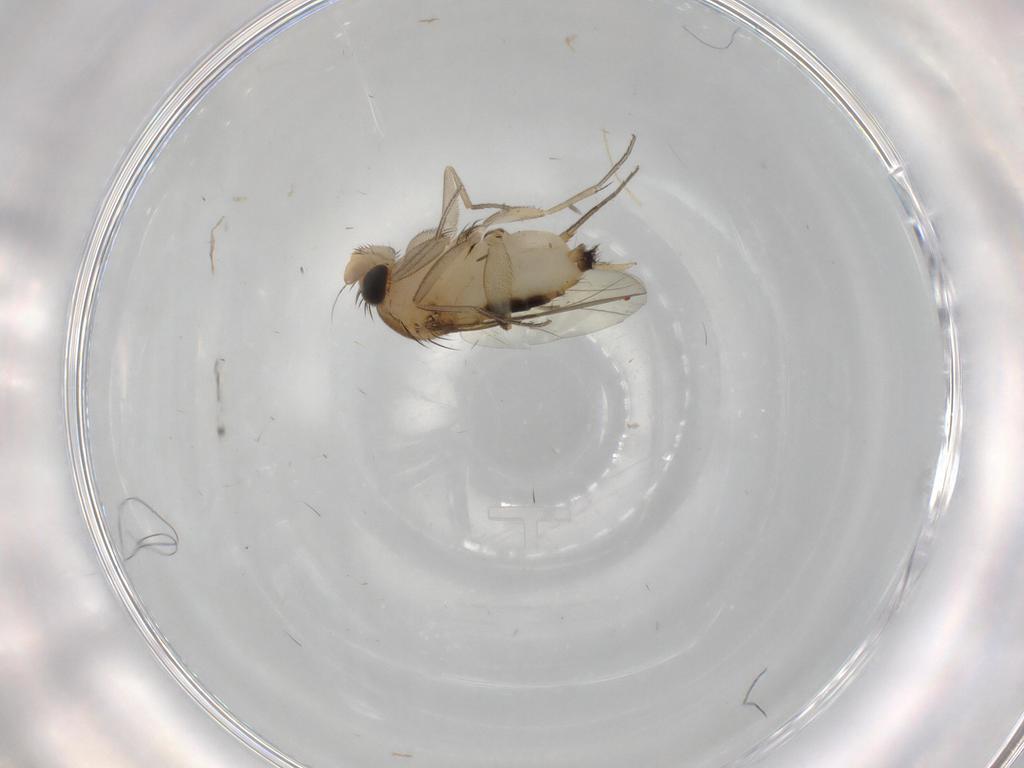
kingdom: Animalia
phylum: Arthropoda
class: Insecta
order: Diptera
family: Phoridae
